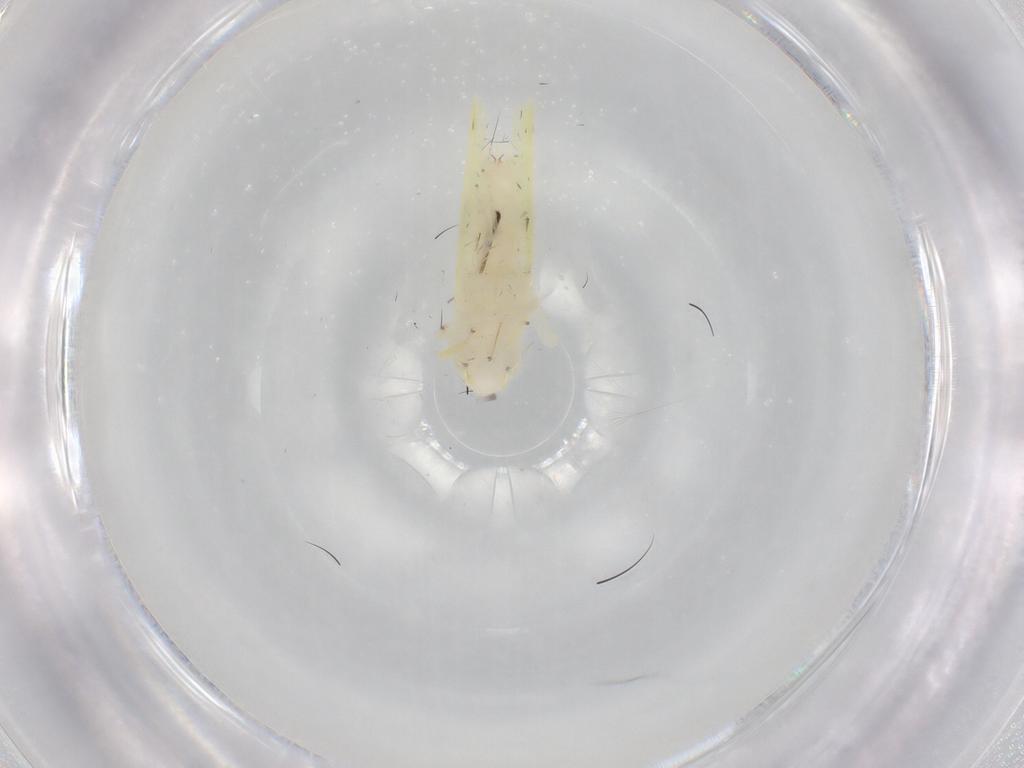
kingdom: Animalia
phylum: Arthropoda
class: Insecta
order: Hemiptera
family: Cicadellidae
